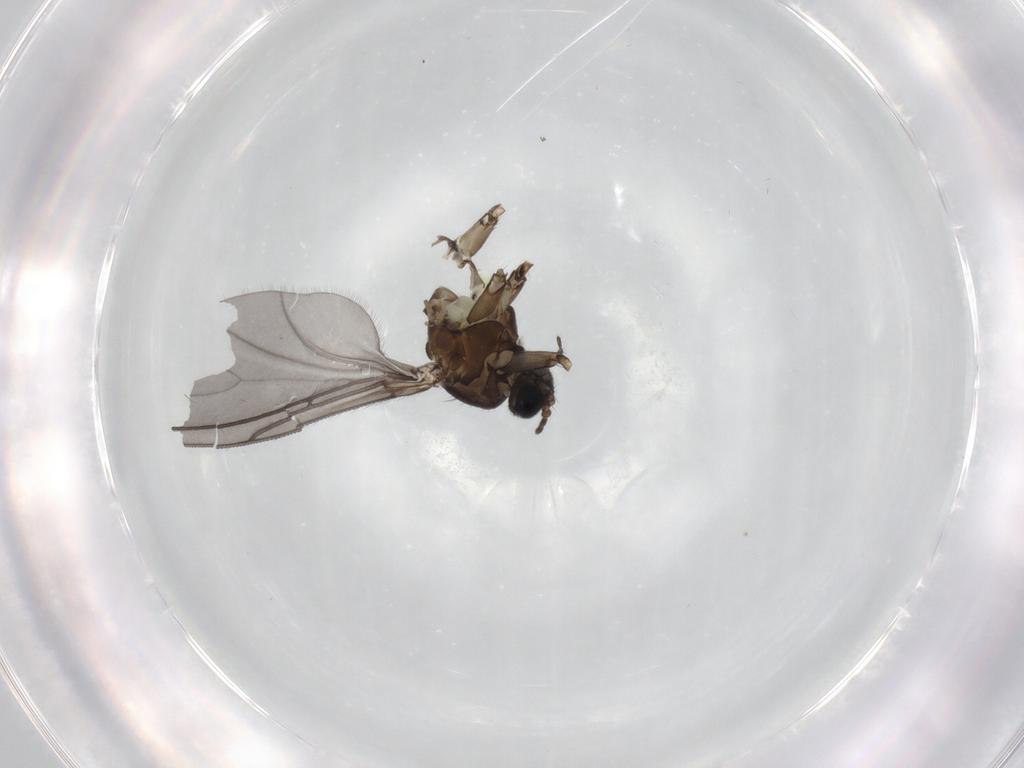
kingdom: Animalia
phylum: Arthropoda
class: Insecta
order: Diptera
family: Sciaridae
